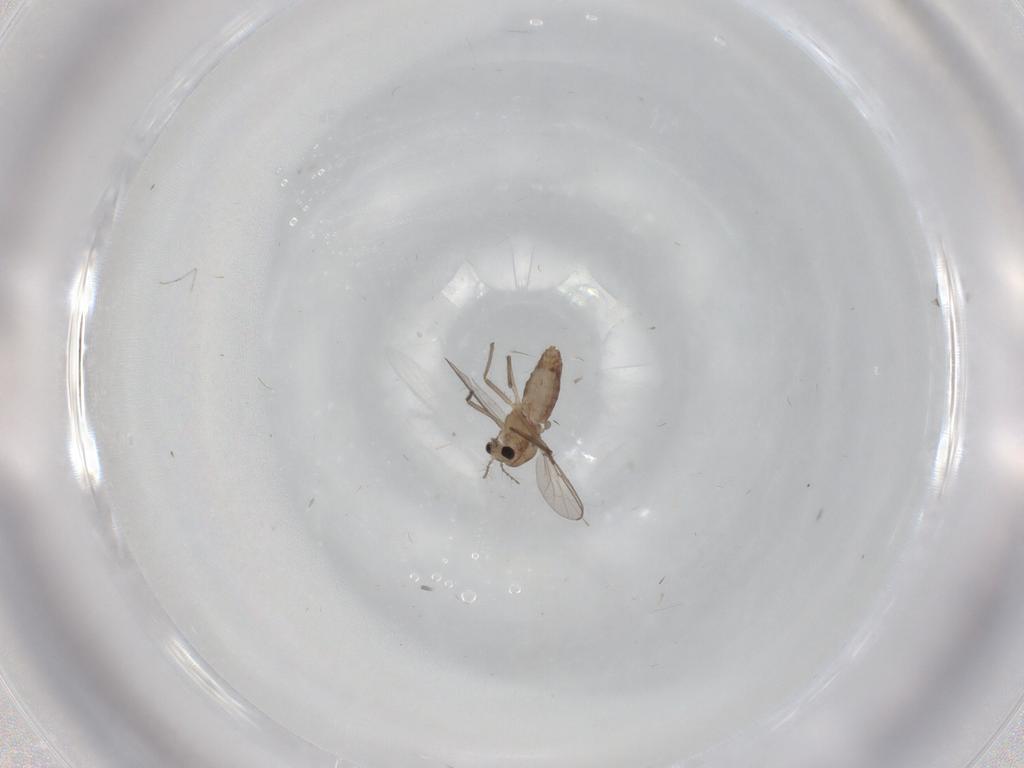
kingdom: Animalia
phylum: Arthropoda
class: Insecta
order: Diptera
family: Chironomidae
